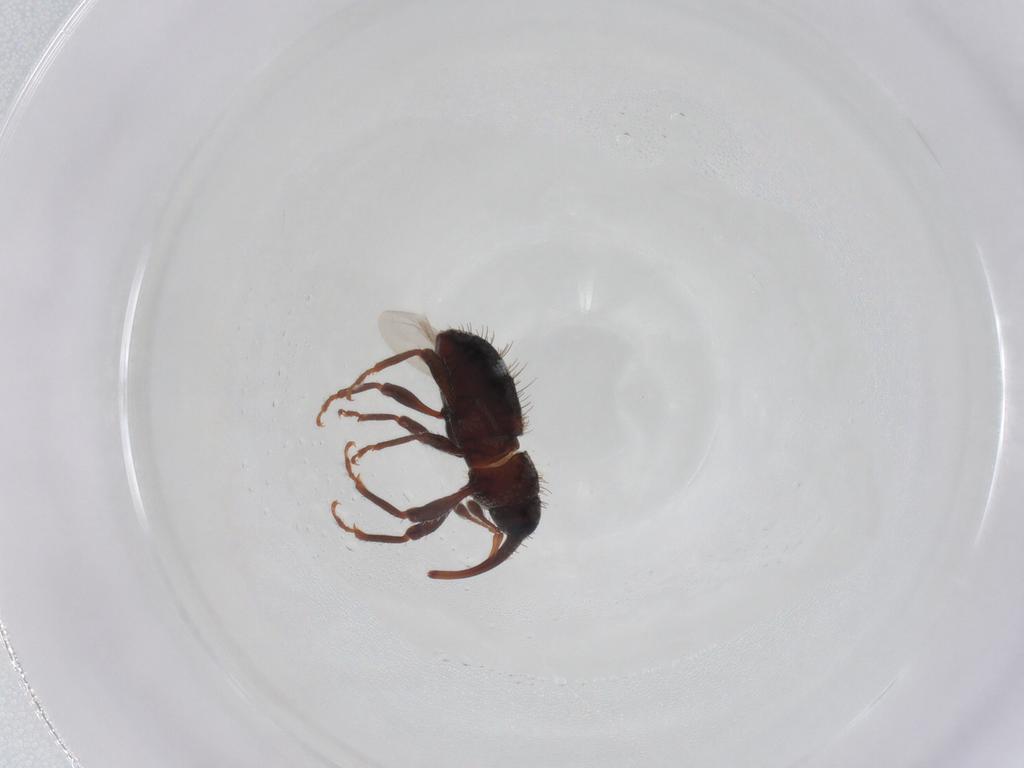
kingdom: Animalia
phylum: Arthropoda
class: Insecta
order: Coleoptera
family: Curculionidae
